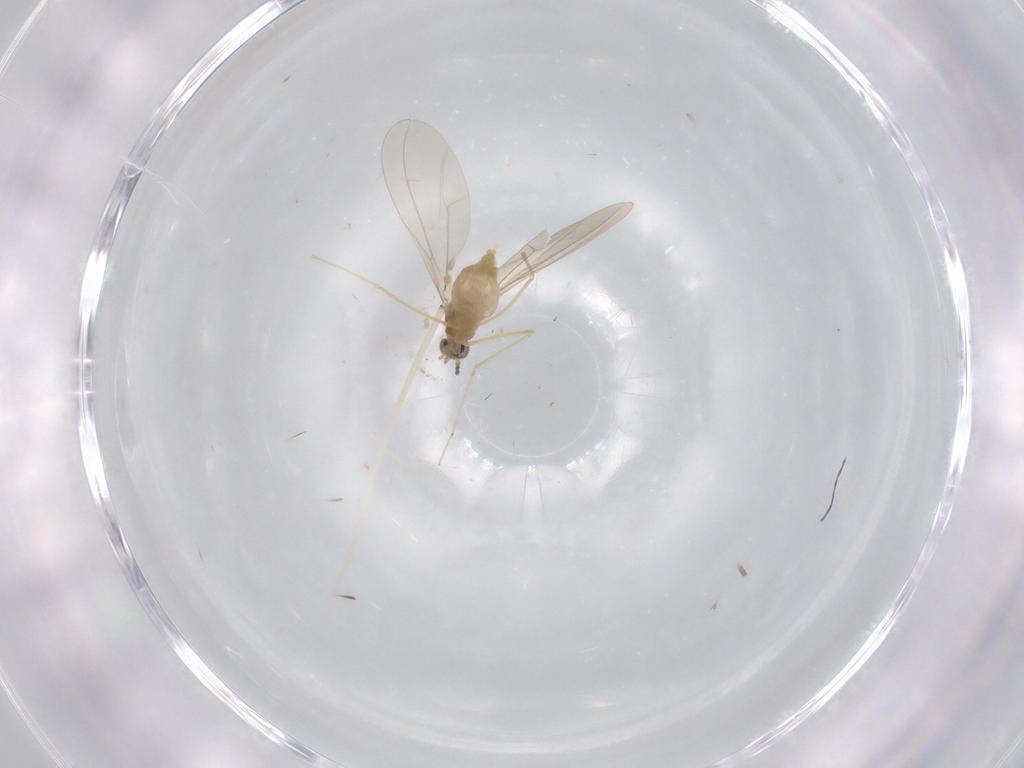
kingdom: Animalia
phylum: Arthropoda
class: Insecta
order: Diptera
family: Cecidomyiidae
